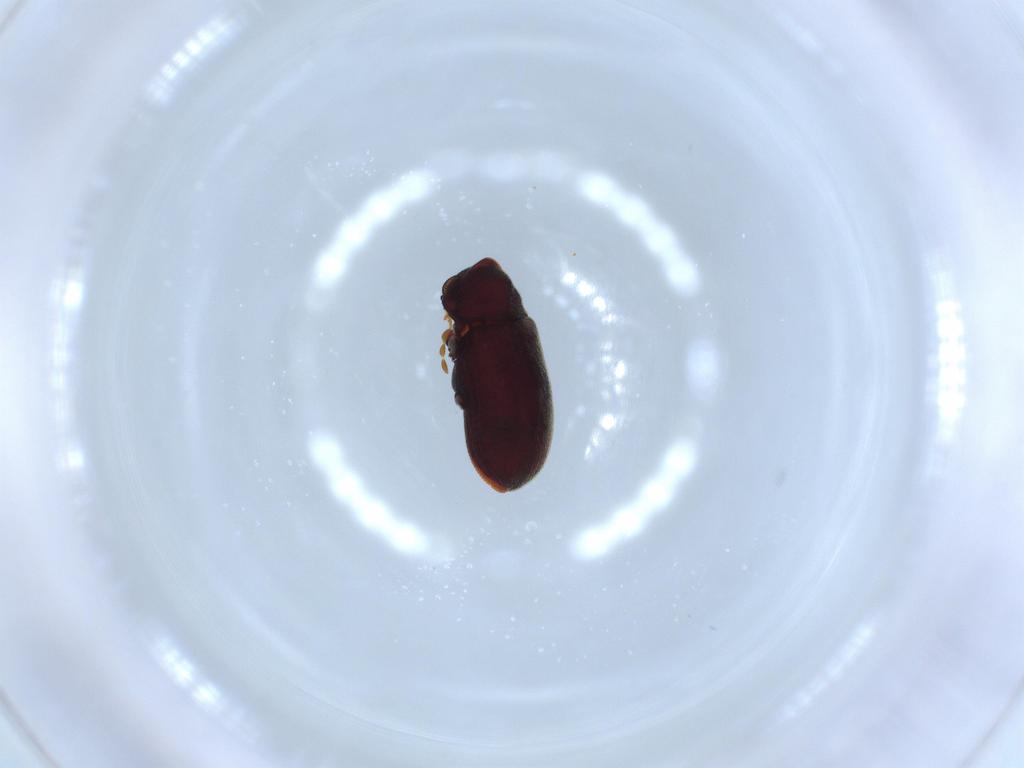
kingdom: Animalia
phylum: Arthropoda
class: Insecta
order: Coleoptera
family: Anobiidae
